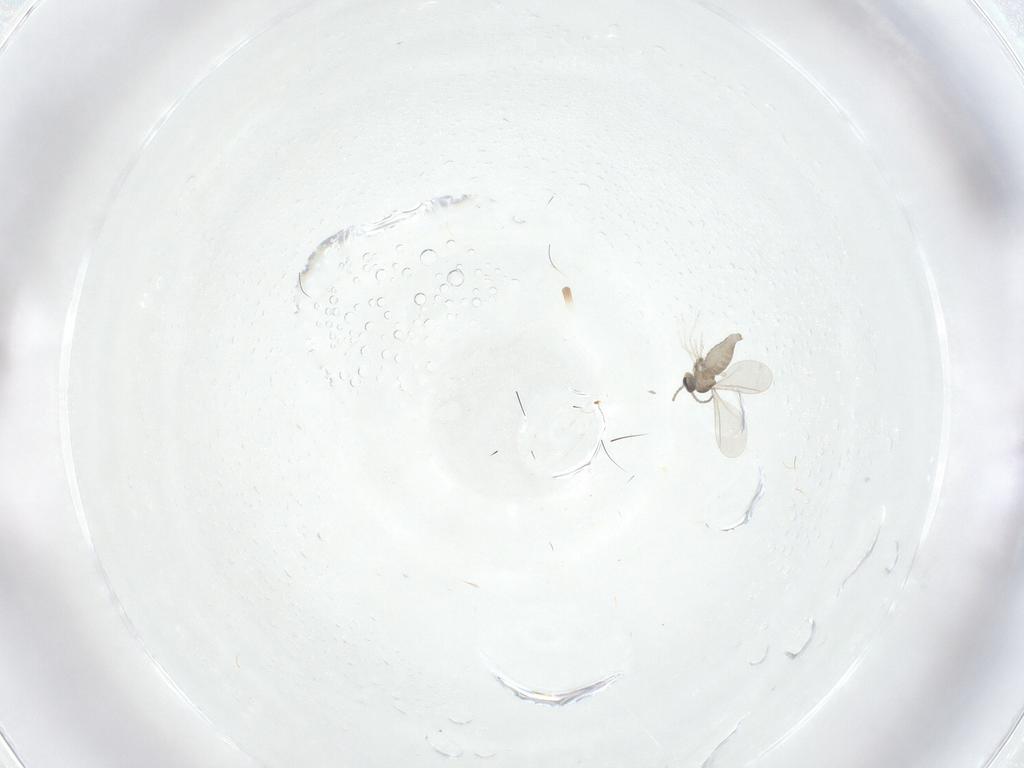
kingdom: Animalia
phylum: Arthropoda
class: Insecta
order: Diptera
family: Cecidomyiidae
